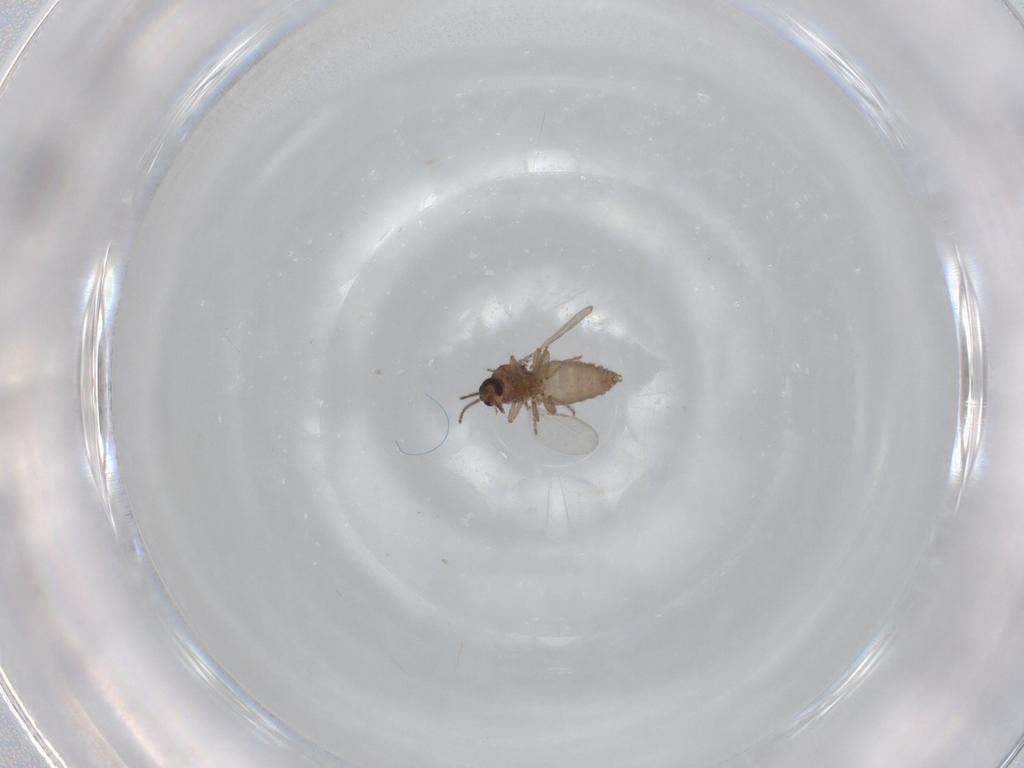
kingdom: Animalia
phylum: Arthropoda
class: Insecta
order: Diptera
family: Ceratopogonidae
